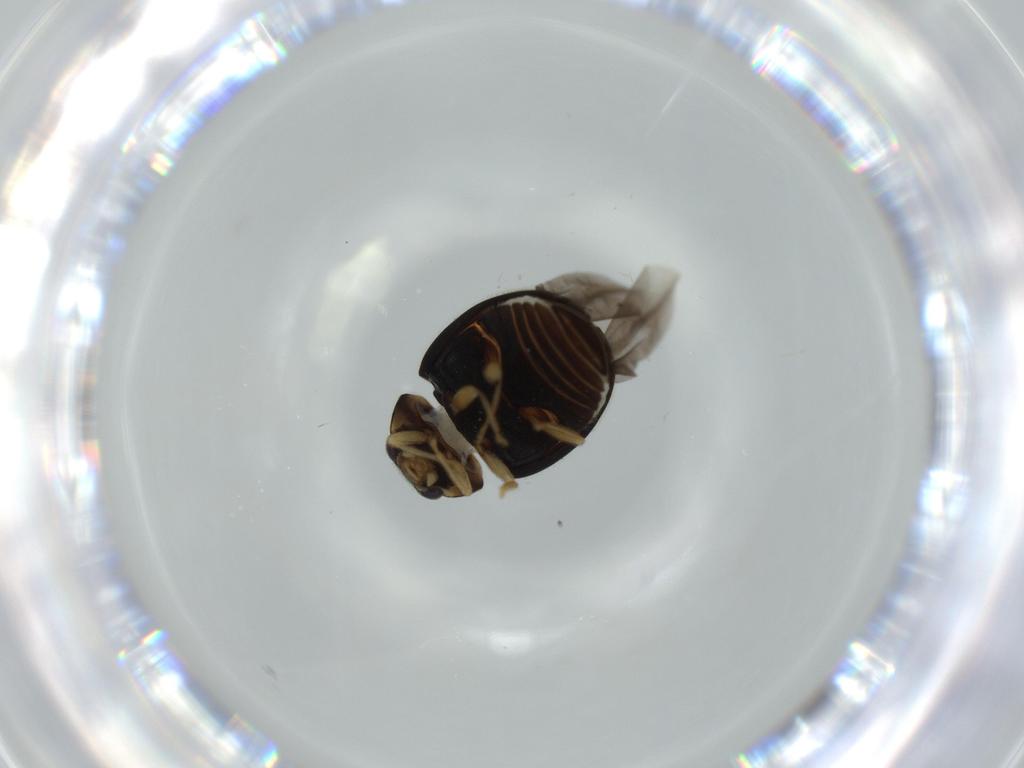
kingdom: Animalia
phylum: Arthropoda
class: Insecta
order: Coleoptera
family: Coccinellidae
